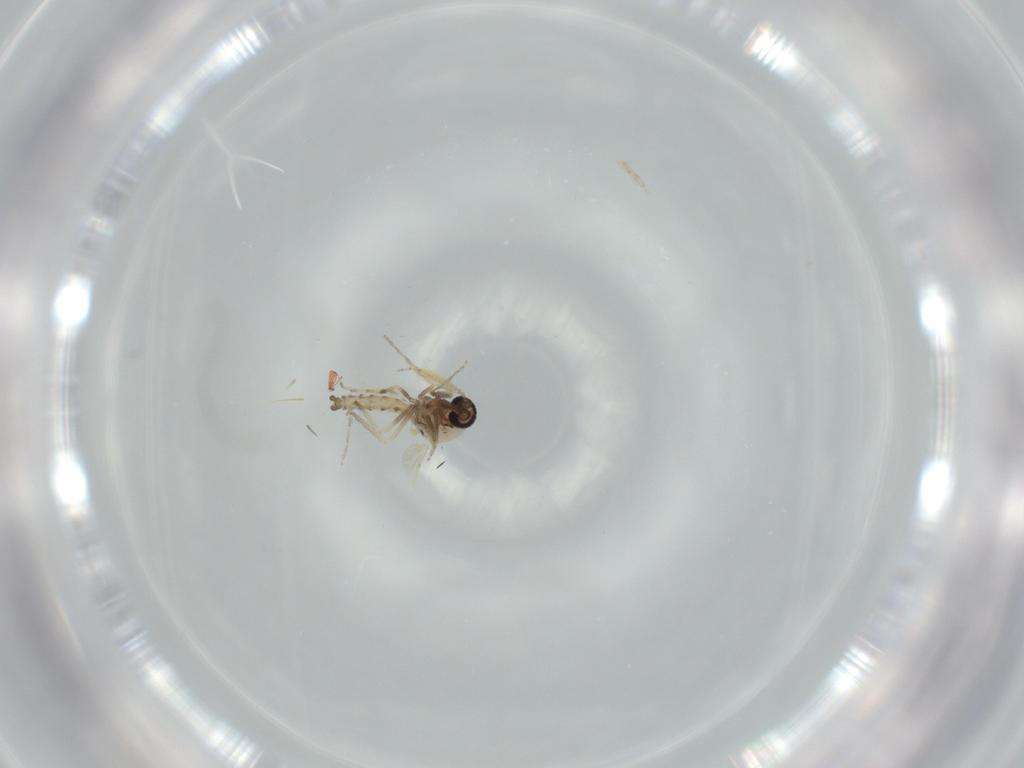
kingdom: Animalia
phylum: Arthropoda
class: Insecta
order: Diptera
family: Dolichopodidae
